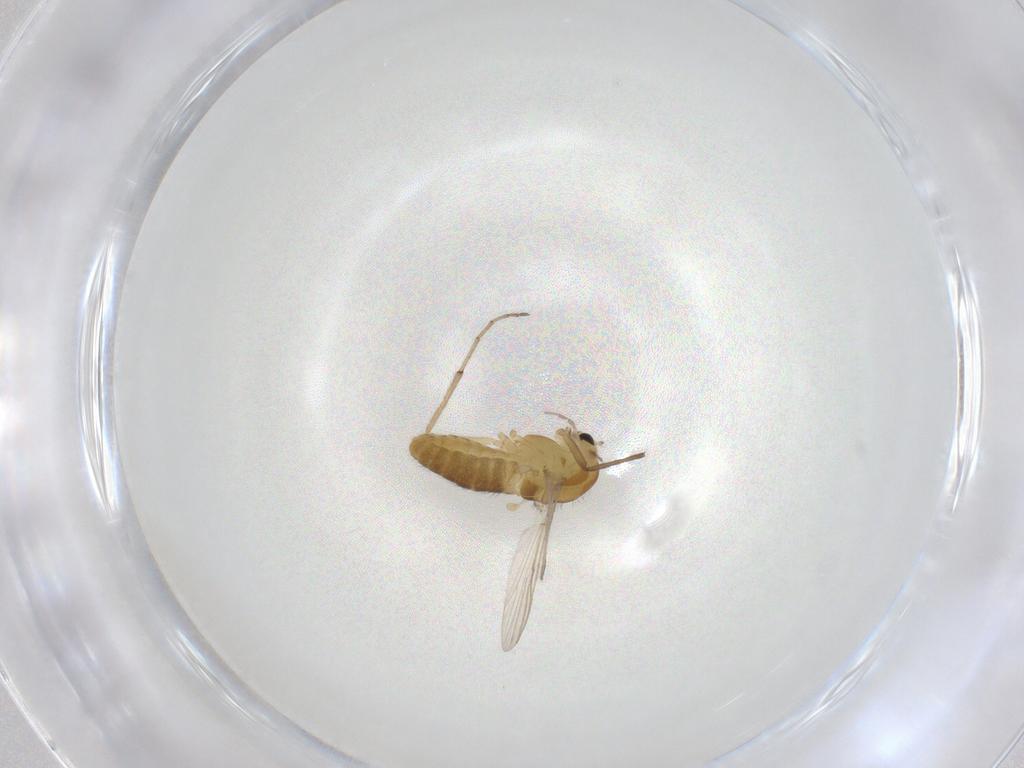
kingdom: Animalia
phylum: Arthropoda
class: Insecta
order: Diptera
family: Chironomidae
